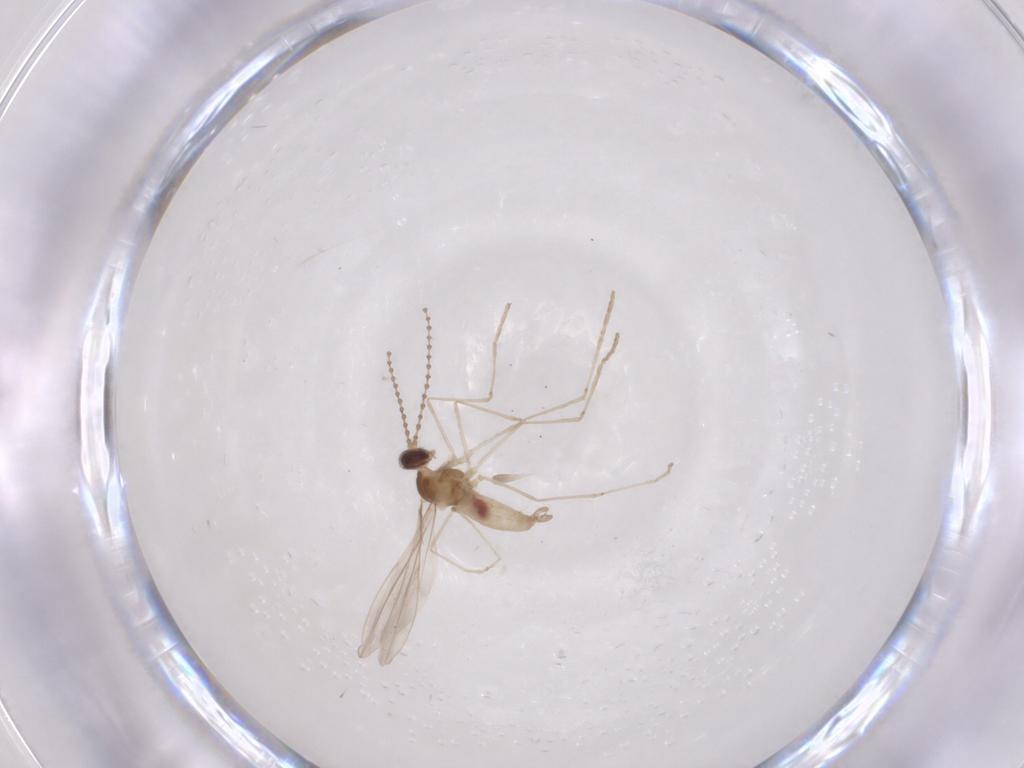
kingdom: Animalia
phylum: Arthropoda
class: Insecta
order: Diptera
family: Cecidomyiidae
